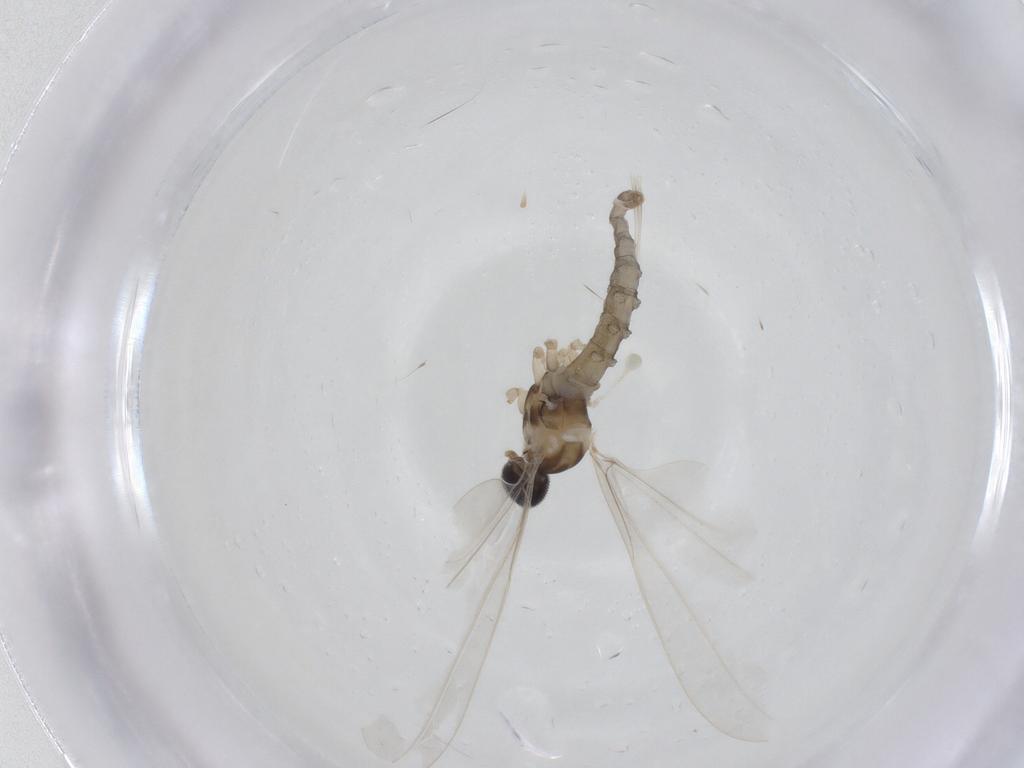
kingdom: Animalia
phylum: Arthropoda
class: Insecta
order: Diptera
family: Cecidomyiidae
